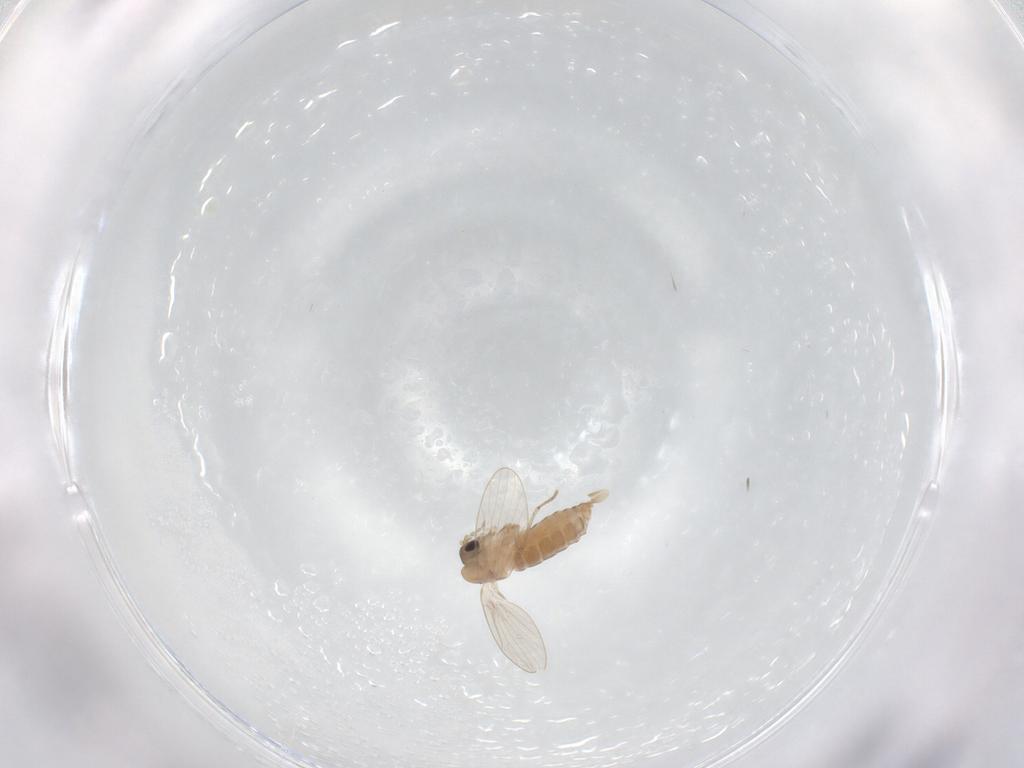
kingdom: Animalia
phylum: Arthropoda
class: Insecta
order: Diptera
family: Psychodidae
